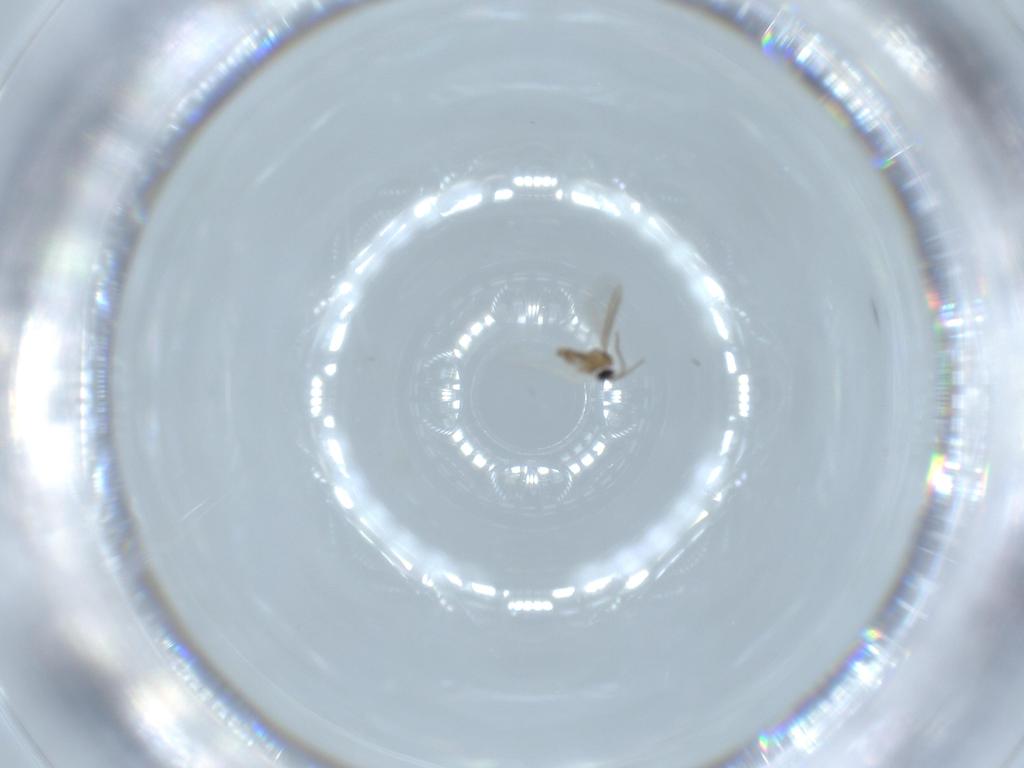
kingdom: Animalia
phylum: Arthropoda
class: Insecta
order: Diptera
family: Cecidomyiidae
